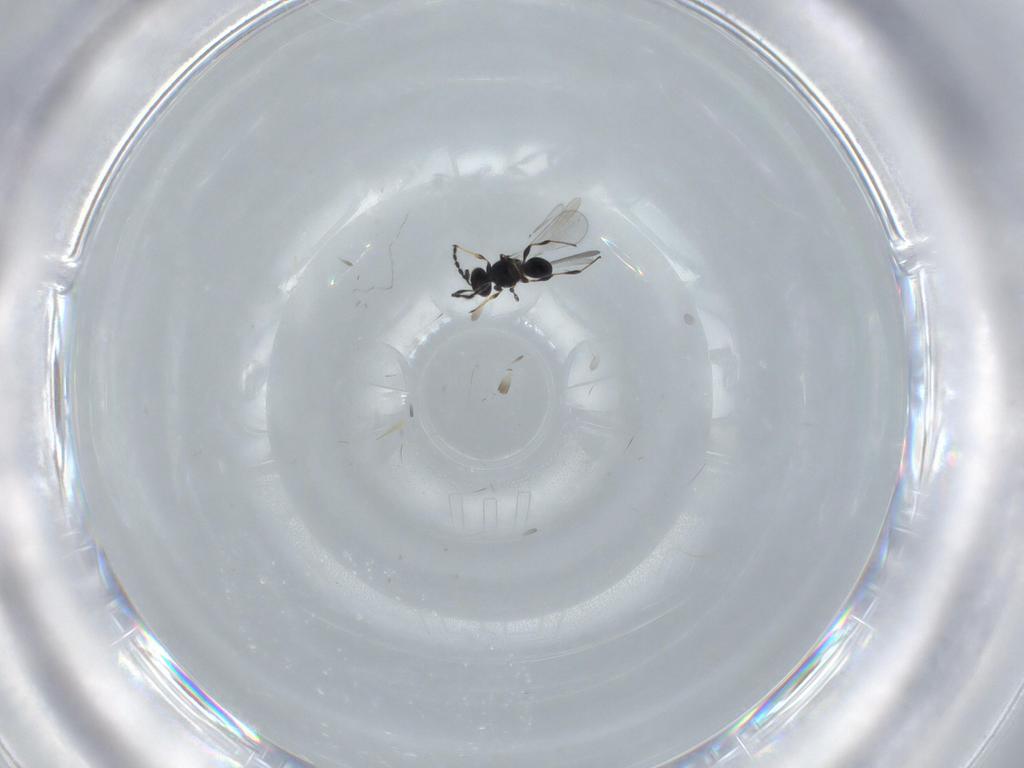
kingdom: Animalia
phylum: Arthropoda
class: Insecta
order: Hymenoptera
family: Platygastridae
